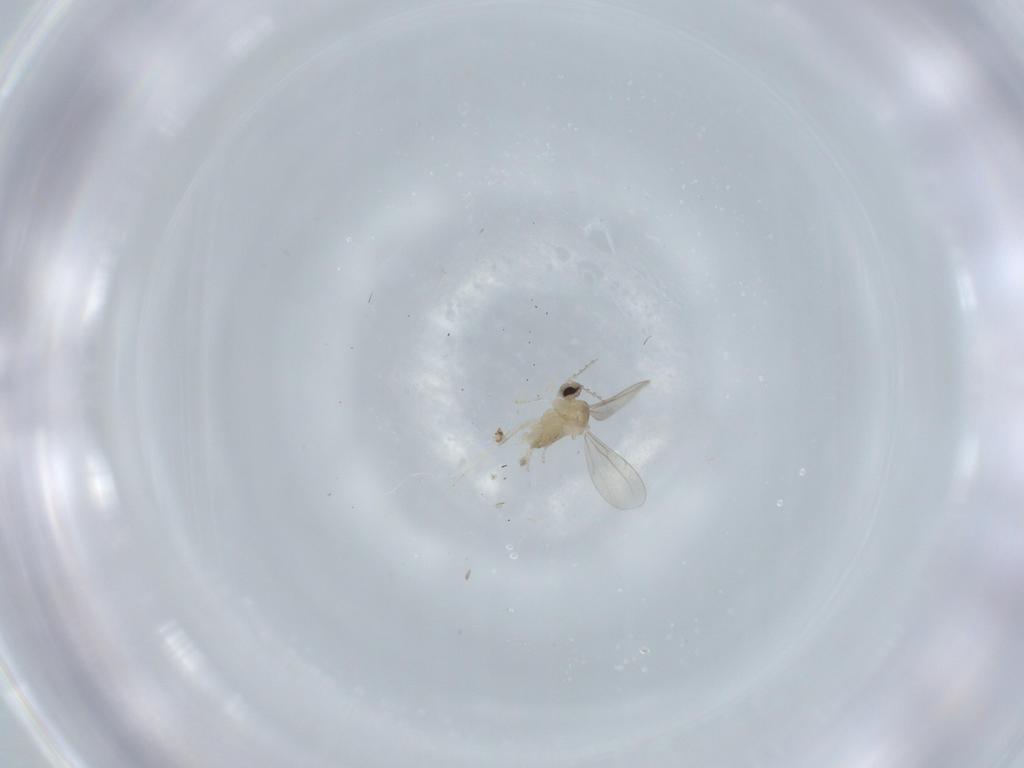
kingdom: Animalia
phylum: Arthropoda
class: Insecta
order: Diptera
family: Cecidomyiidae
